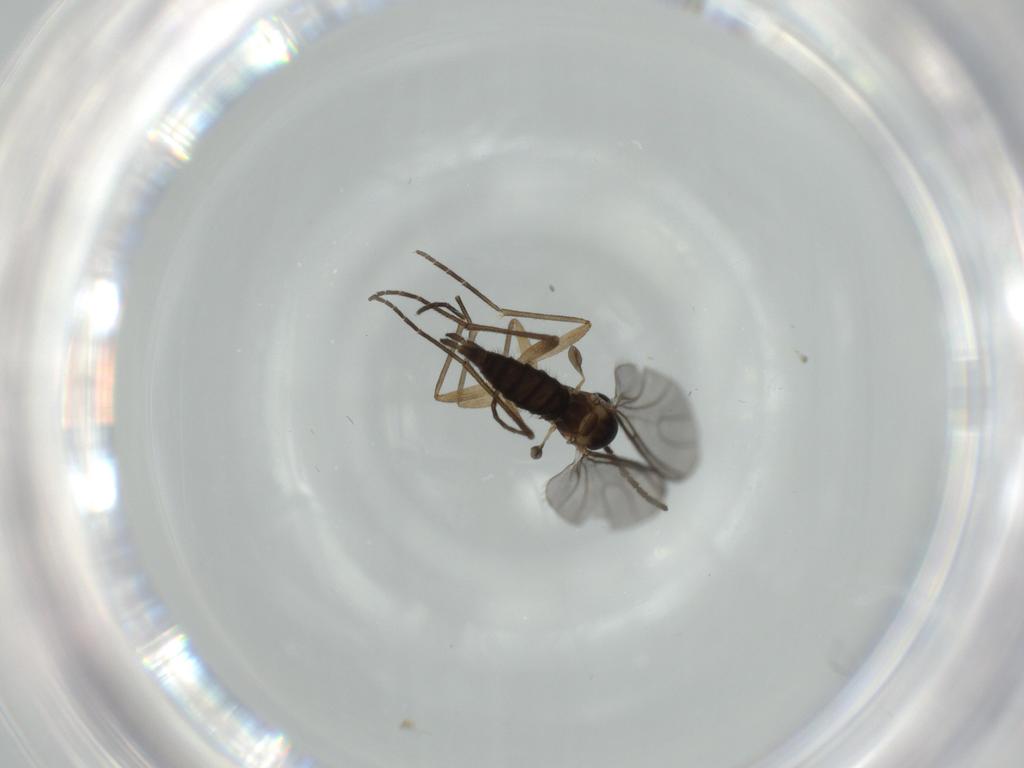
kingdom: Animalia
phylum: Arthropoda
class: Insecta
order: Diptera
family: Sciaridae
